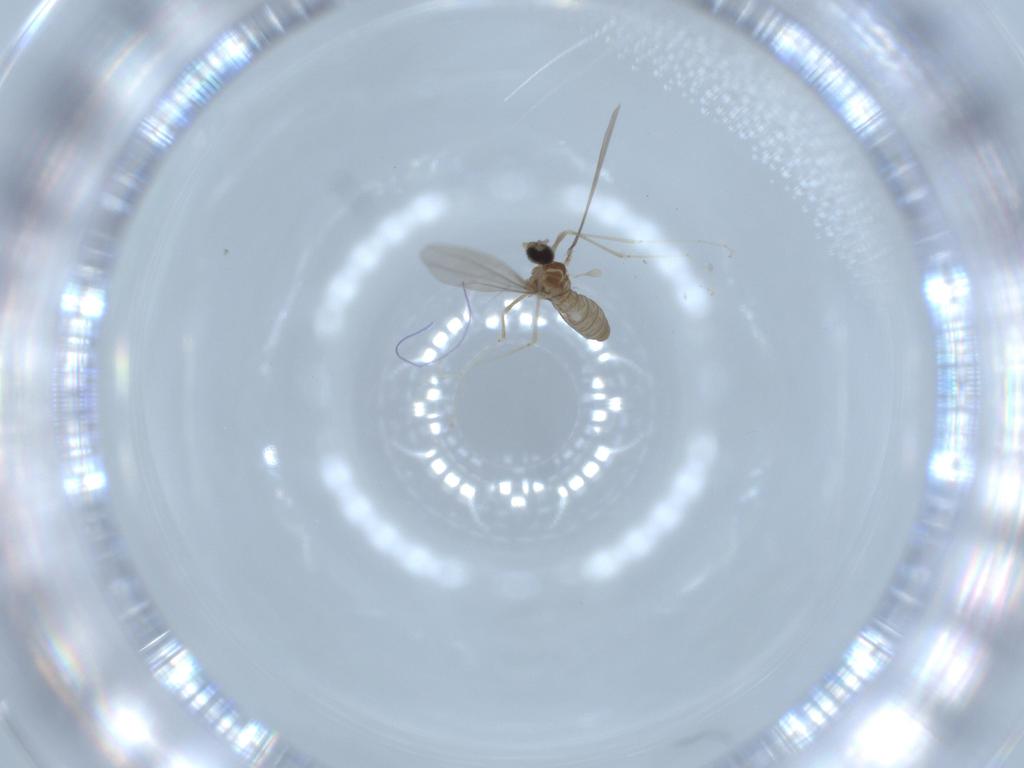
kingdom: Animalia
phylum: Arthropoda
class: Insecta
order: Diptera
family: Cecidomyiidae
